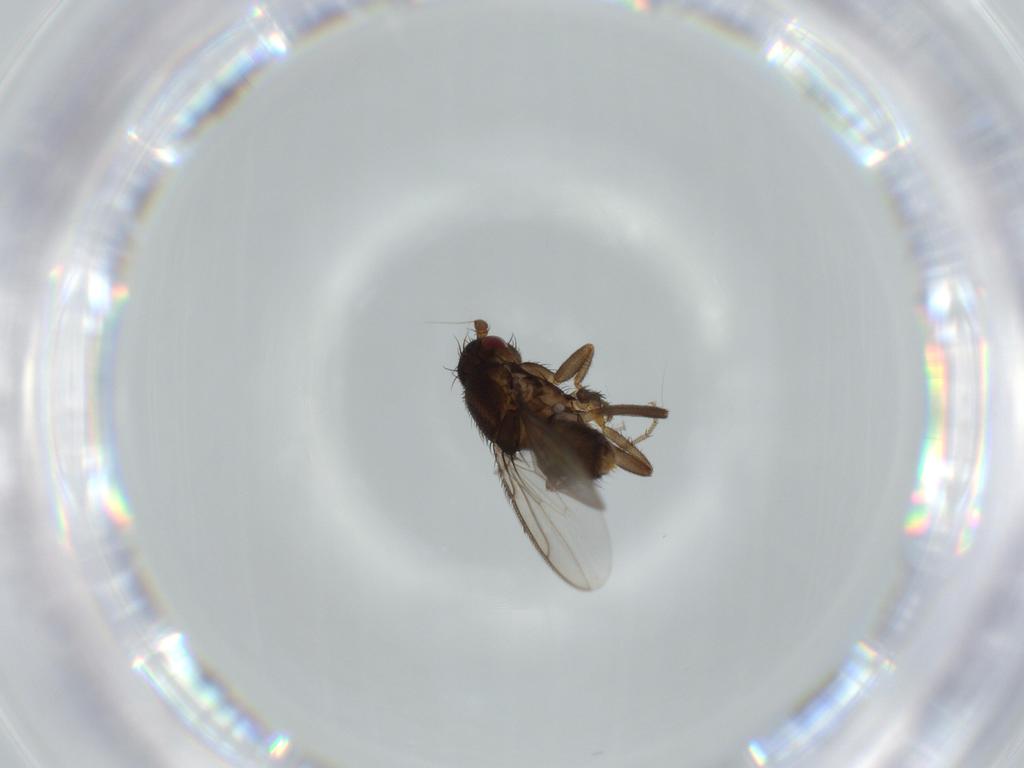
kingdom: Animalia
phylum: Arthropoda
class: Insecta
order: Diptera
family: Sphaeroceridae
